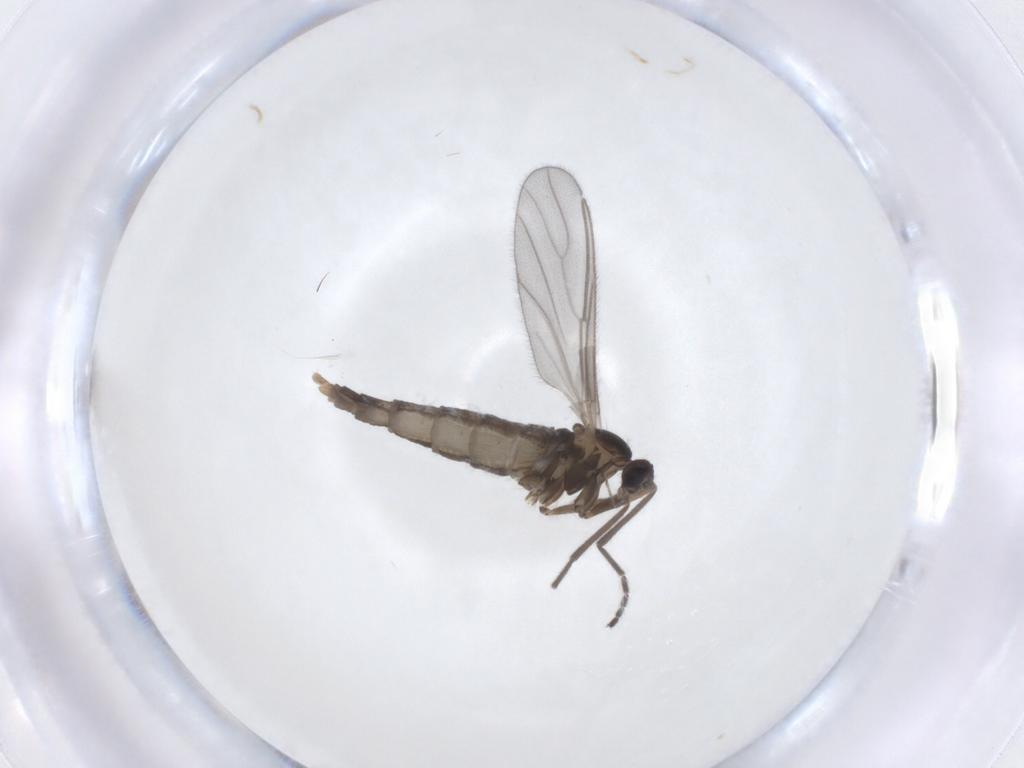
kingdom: Animalia
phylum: Arthropoda
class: Insecta
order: Diptera
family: Cecidomyiidae
